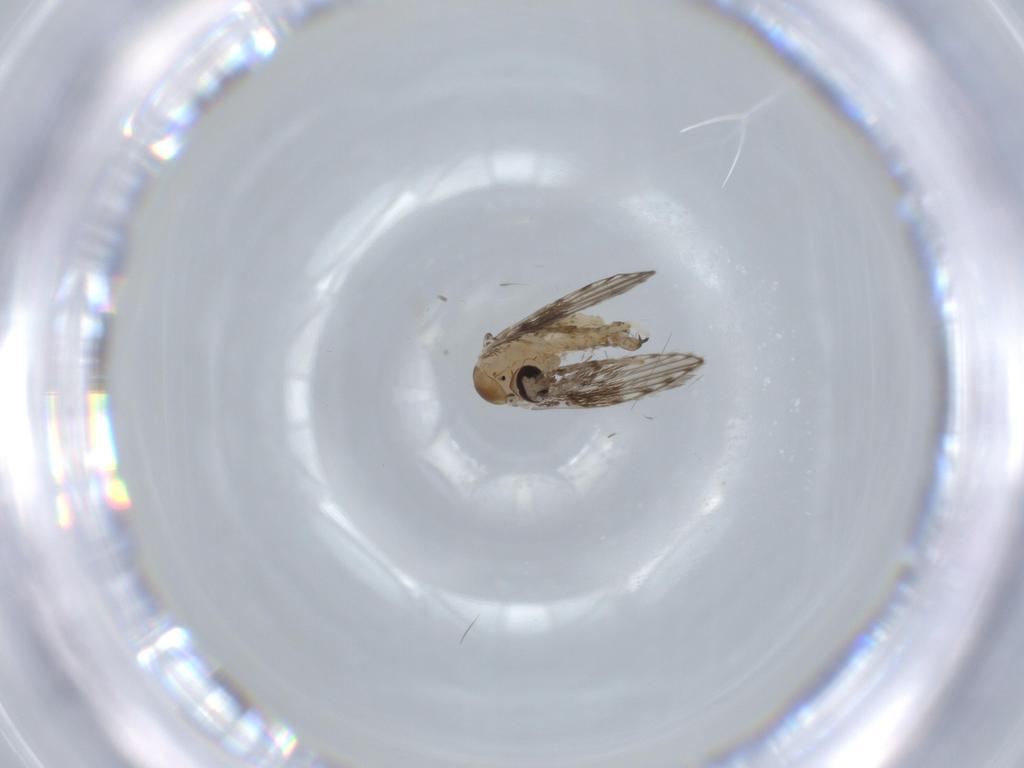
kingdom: Animalia
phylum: Arthropoda
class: Insecta
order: Diptera
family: Psychodidae
